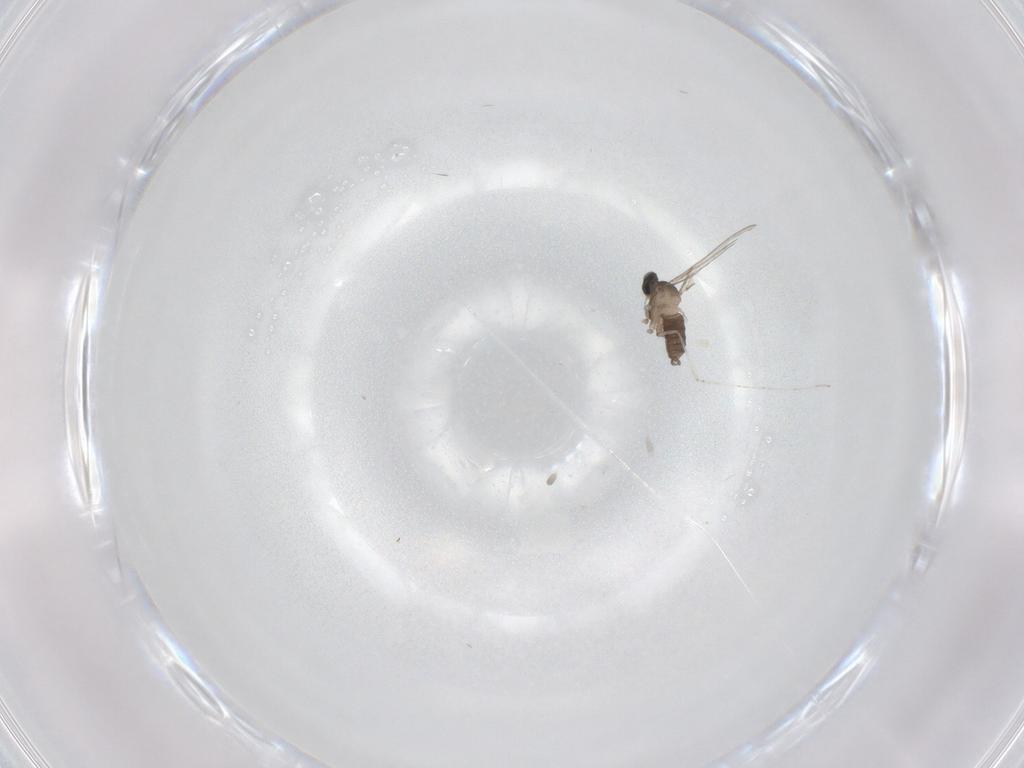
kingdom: Animalia
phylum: Arthropoda
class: Insecta
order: Diptera
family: Cecidomyiidae
